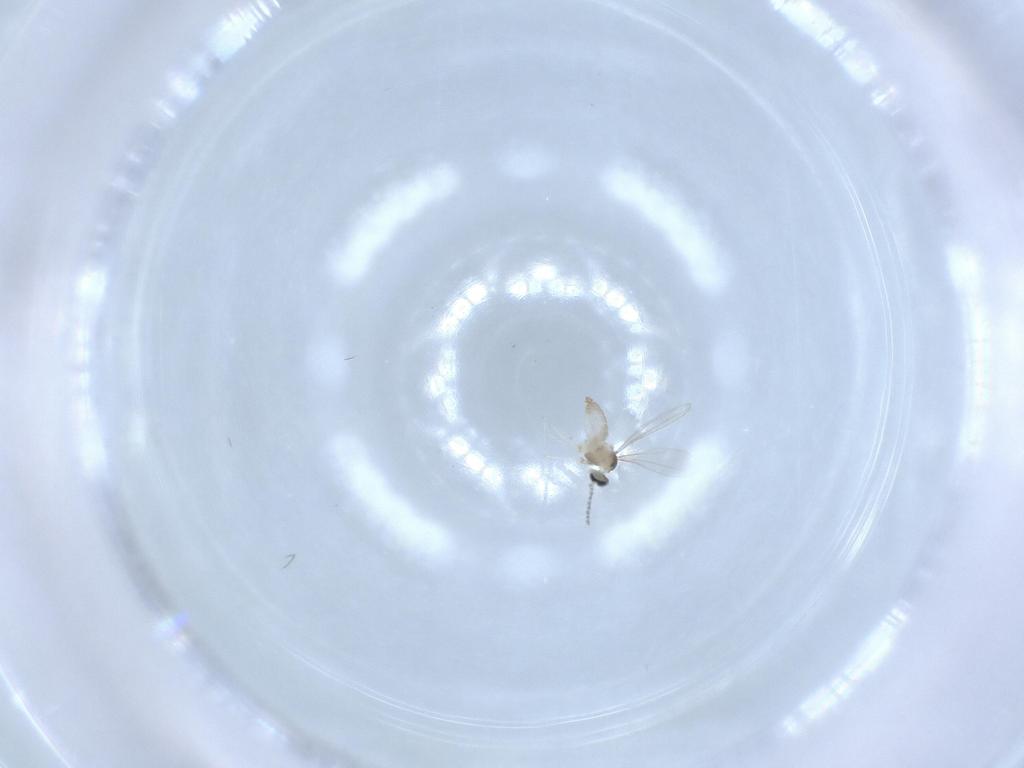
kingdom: Animalia
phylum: Arthropoda
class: Insecta
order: Diptera
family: Cecidomyiidae
